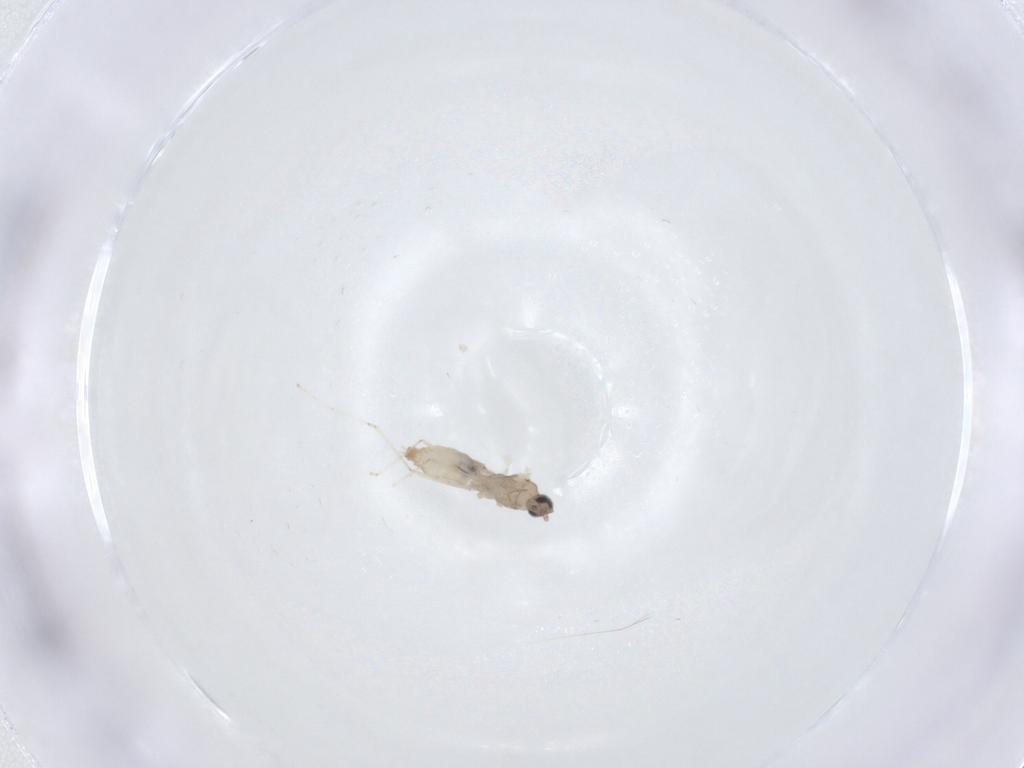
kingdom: Animalia
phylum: Arthropoda
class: Insecta
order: Diptera
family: Cecidomyiidae
